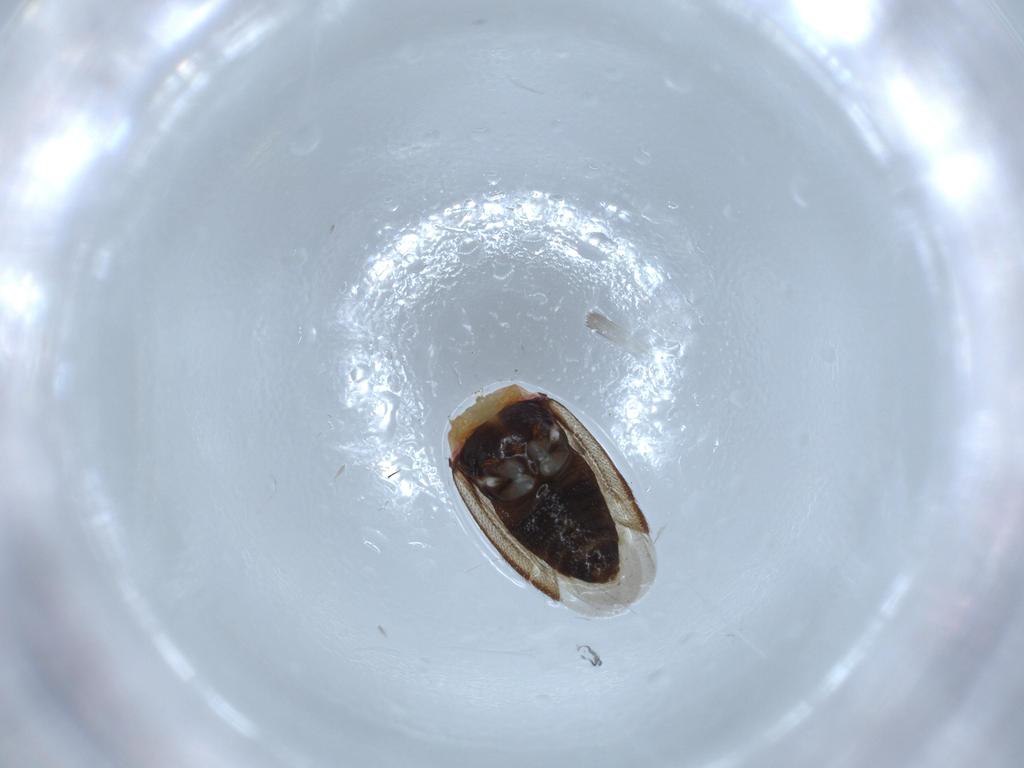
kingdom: Animalia
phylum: Arthropoda
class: Insecta
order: Hemiptera
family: Miridae
